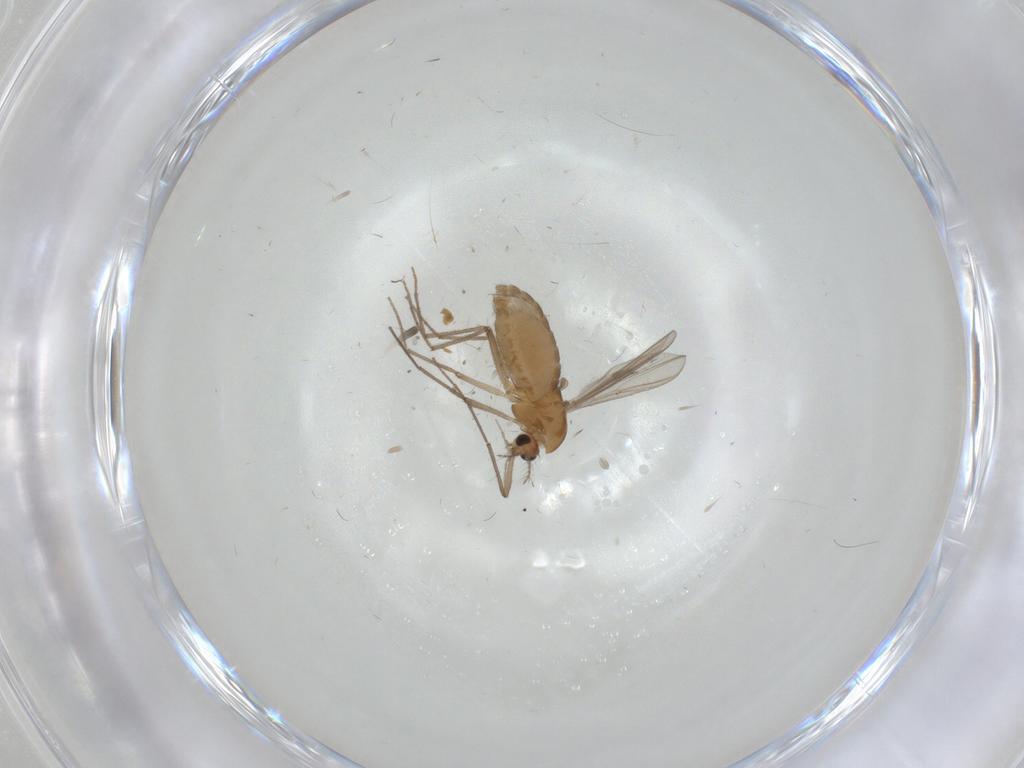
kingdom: Animalia
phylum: Arthropoda
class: Insecta
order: Diptera
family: Chironomidae
